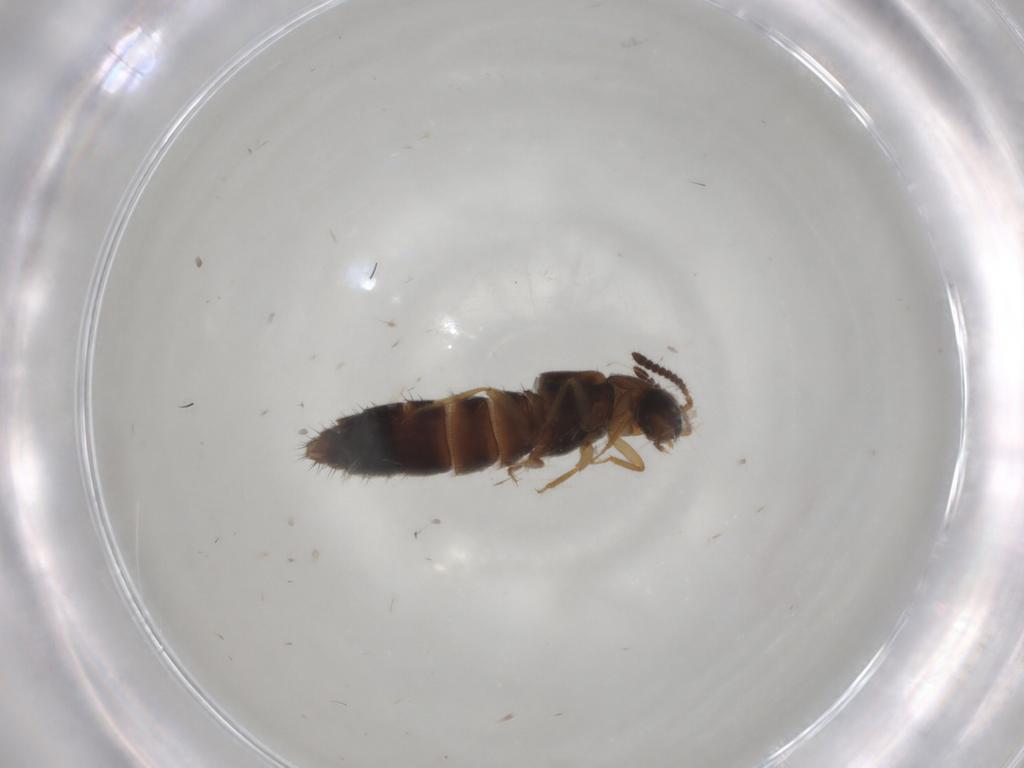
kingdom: Animalia
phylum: Arthropoda
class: Insecta
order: Coleoptera
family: Staphylinidae
